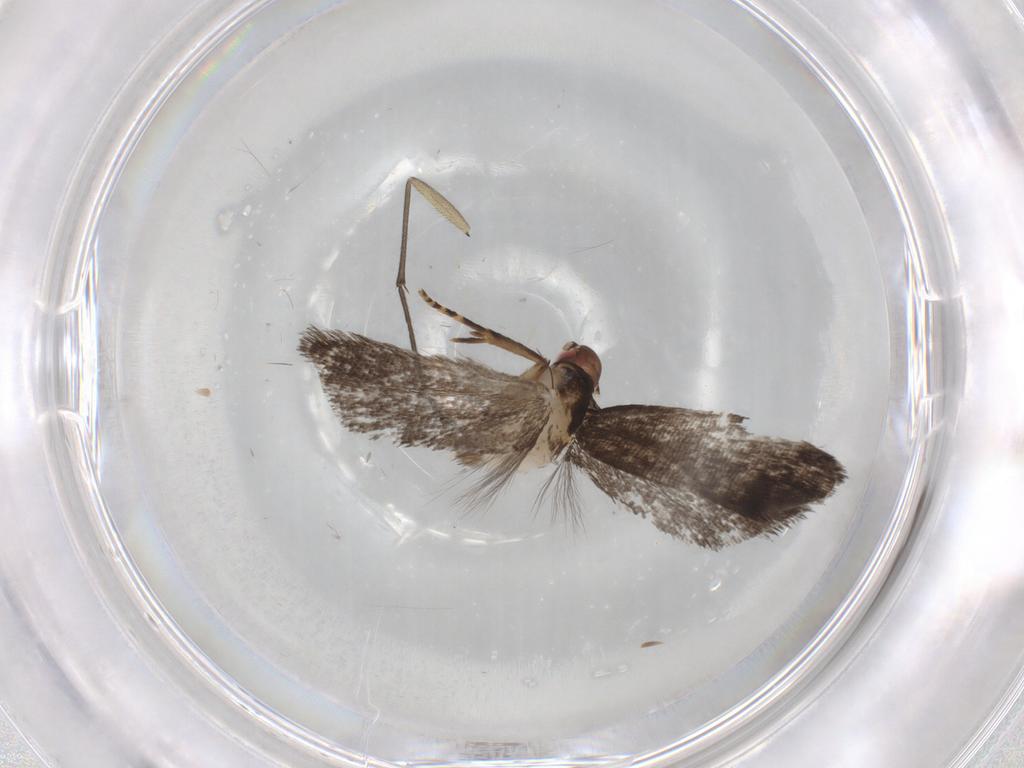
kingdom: Animalia
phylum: Arthropoda
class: Insecta
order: Lepidoptera
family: Gelechiidae
